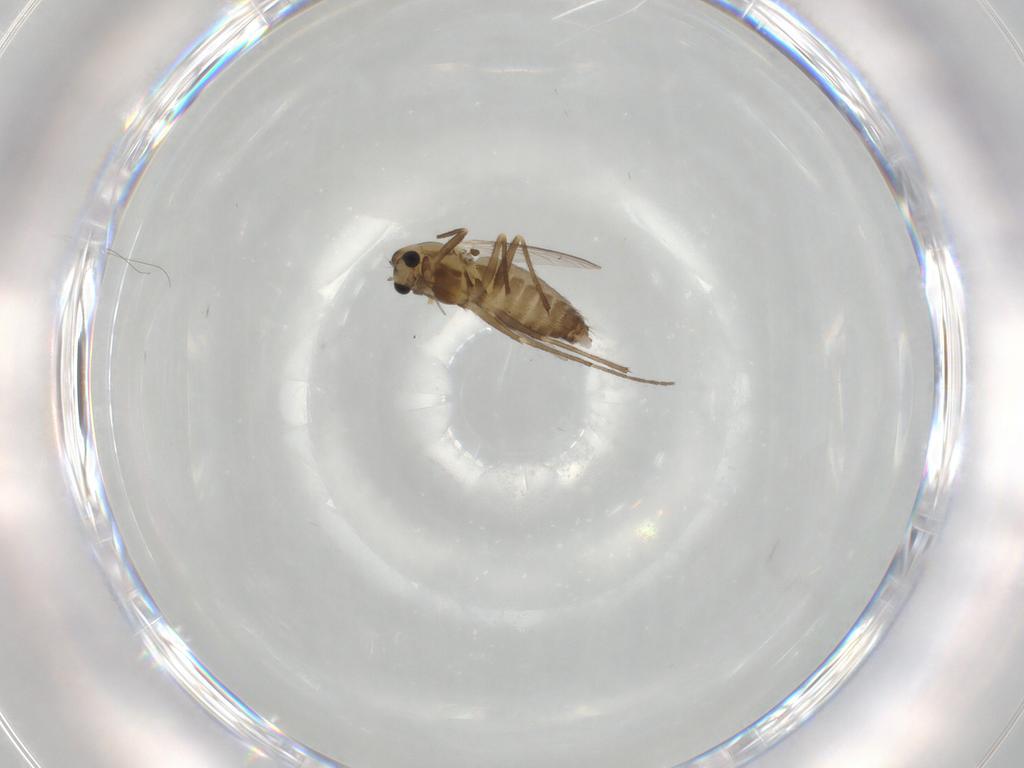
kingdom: Animalia
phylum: Arthropoda
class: Insecta
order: Diptera
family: Chironomidae
